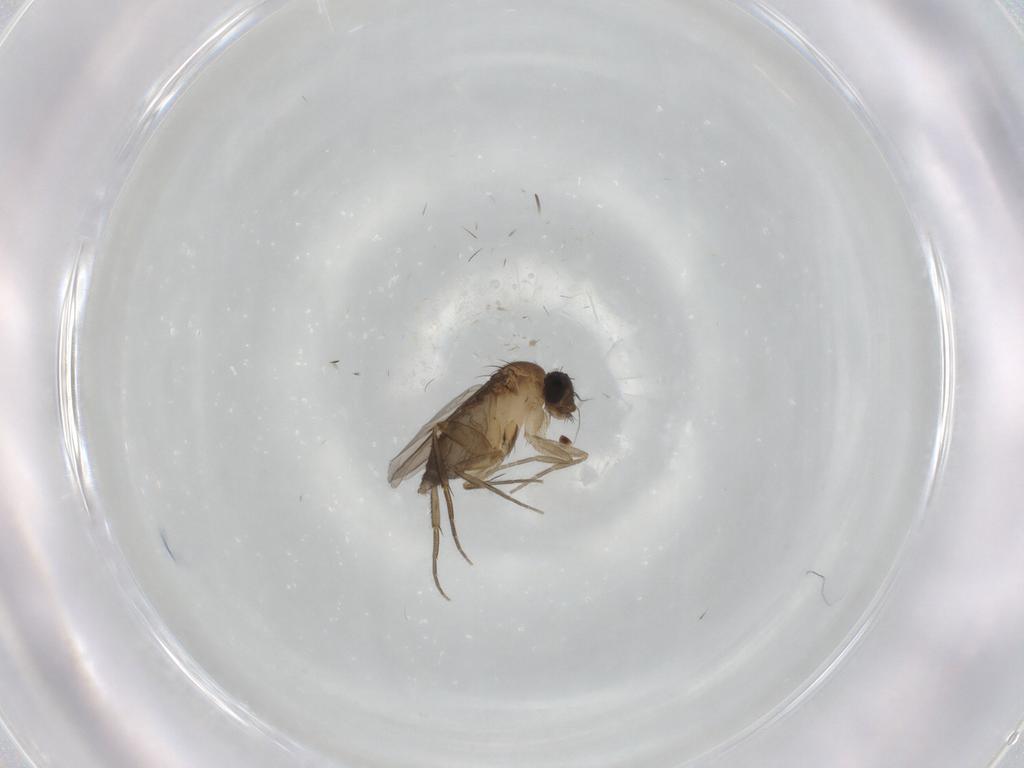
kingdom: Animalia
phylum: Arthropoda
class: Insecta
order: Diptera
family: Phoridae
